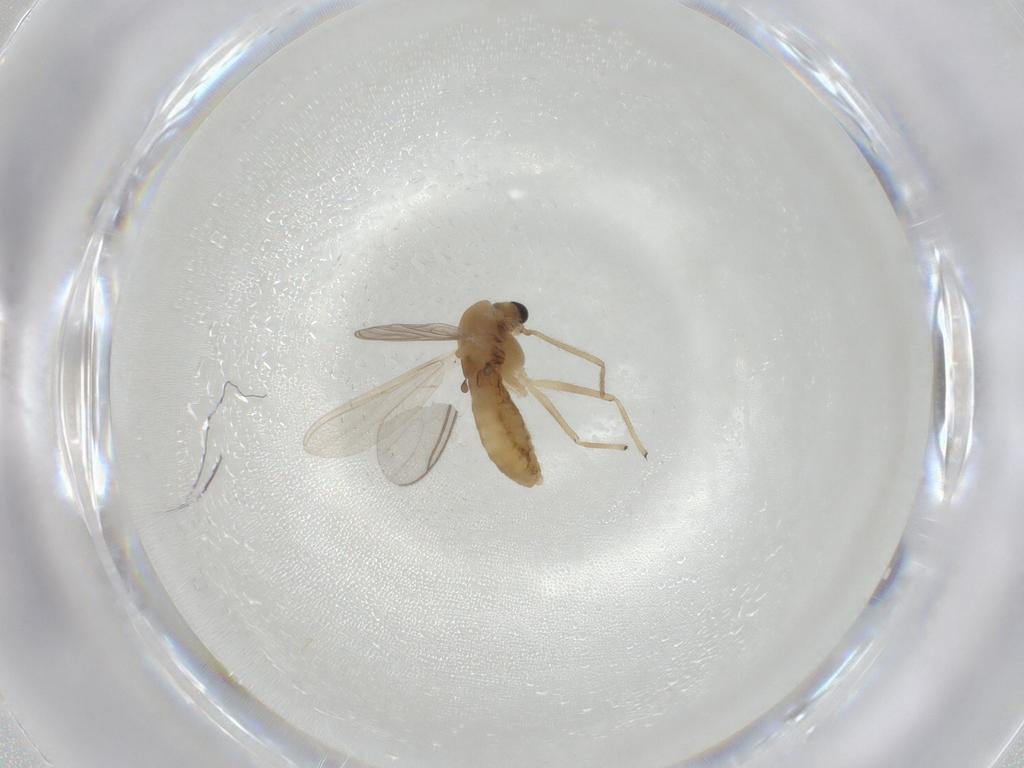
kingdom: Animalia
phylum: Arthropoda
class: Insecta
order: Diptera
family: Chironomidae
